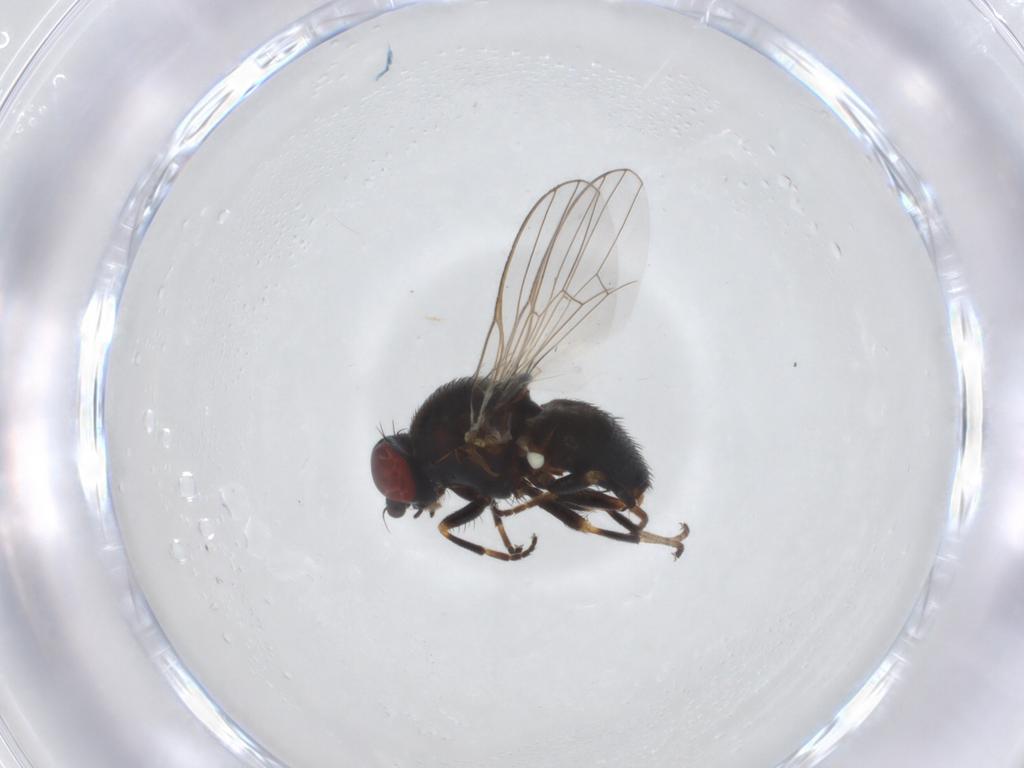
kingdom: Animalia
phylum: Arthropoda
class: Insecta
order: Diptera
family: Chamaemyiidae
